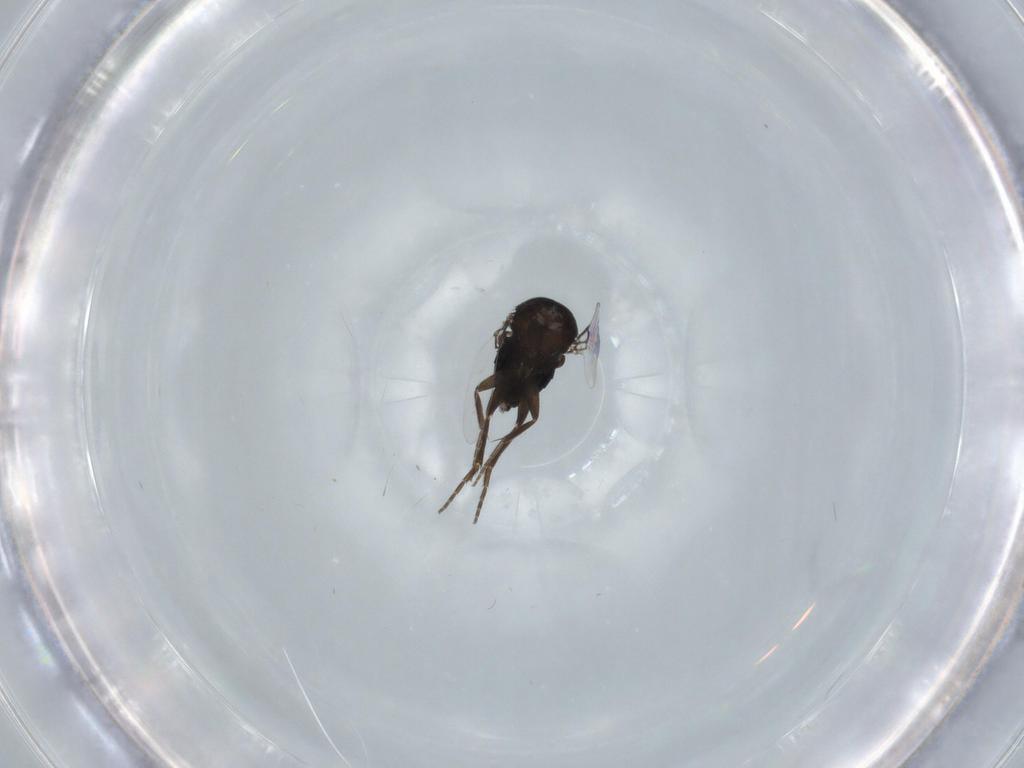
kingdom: Animalia
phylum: Arthropoda
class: Insecta
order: Diptera
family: Phoridae
